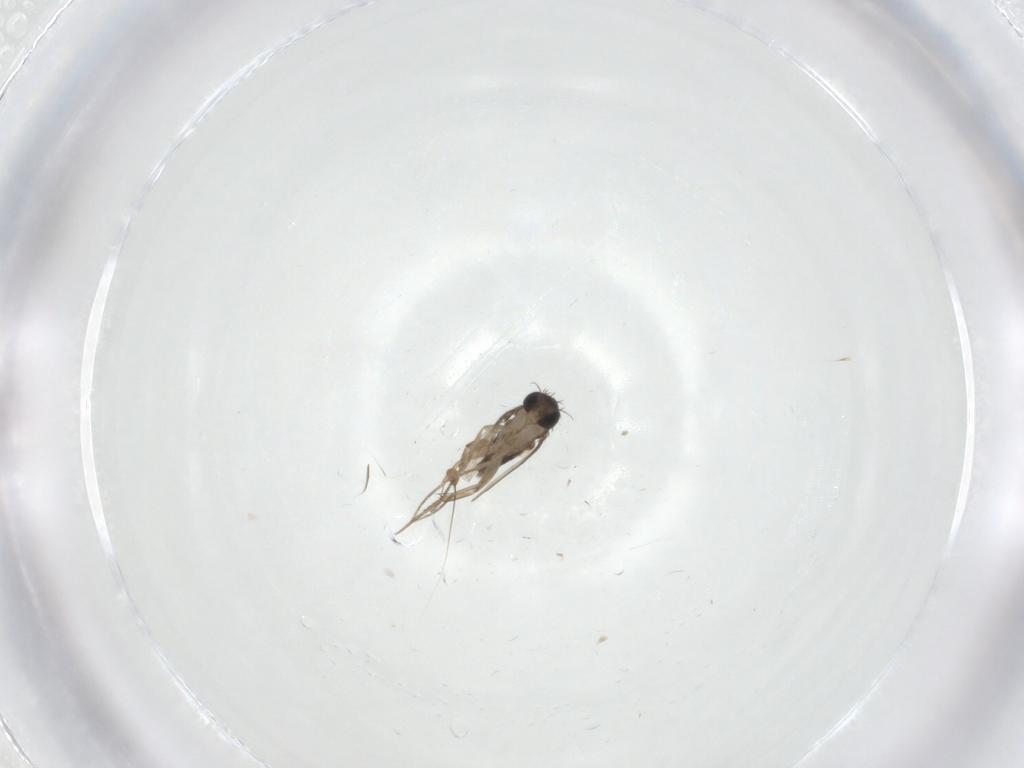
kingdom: Animalia
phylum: Arthropoda
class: Insecta
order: Diptera
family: Phoridae
